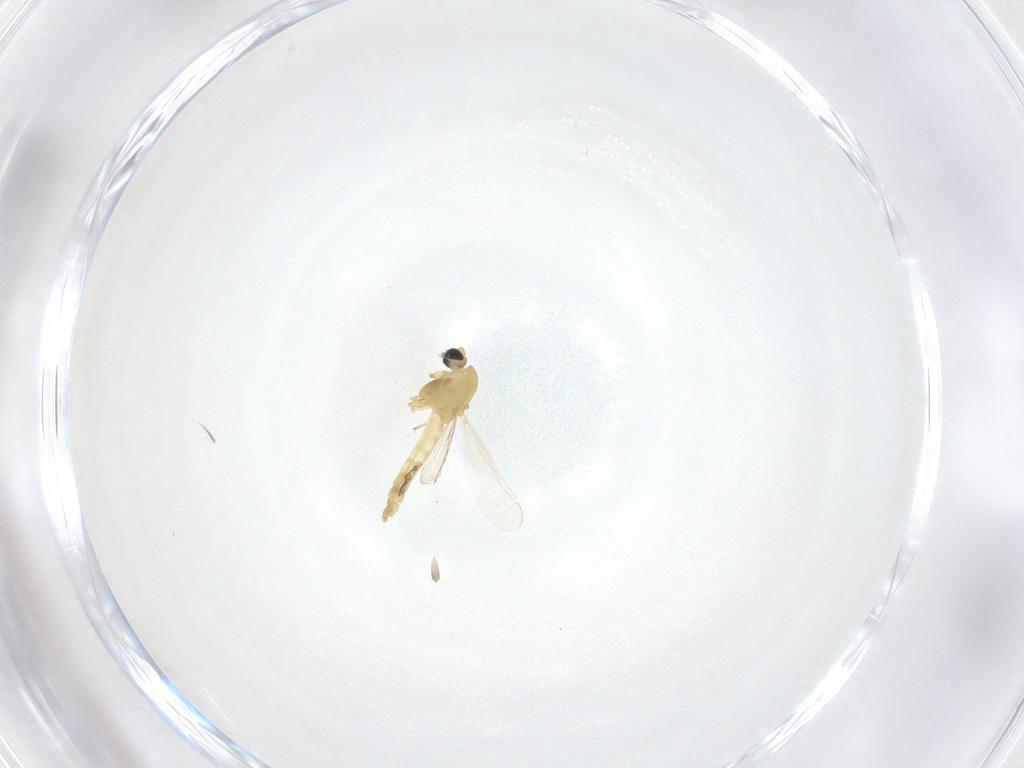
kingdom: Animalia
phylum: Arthropoda
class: Insecta
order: Diptera
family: Chironomidae
